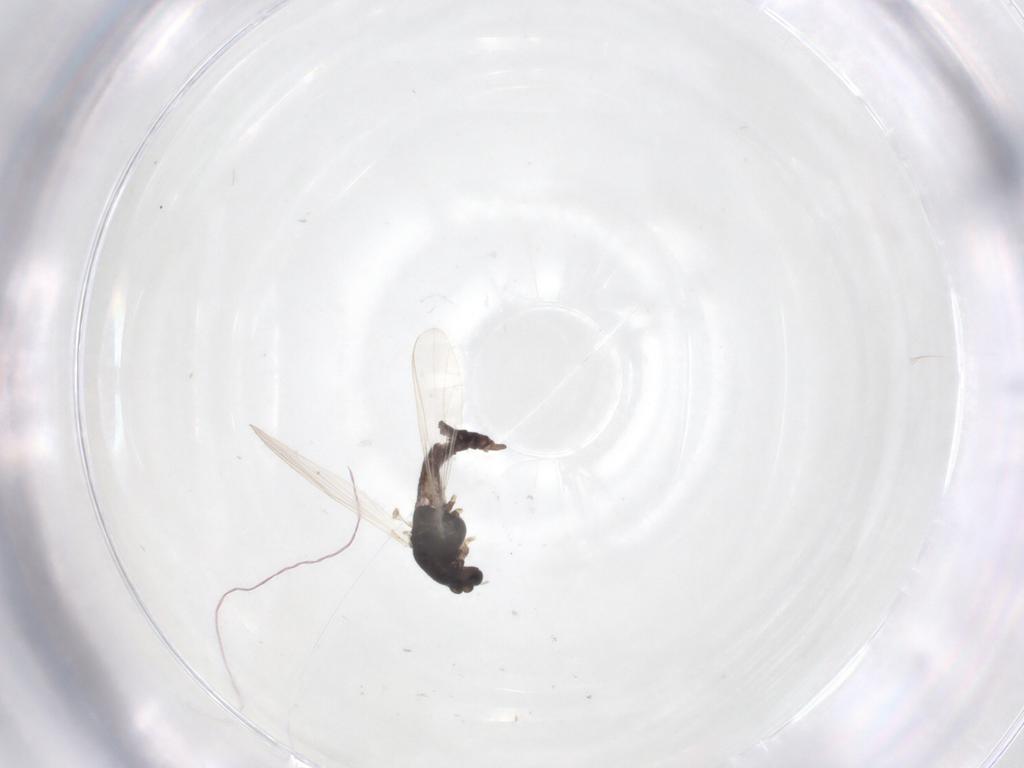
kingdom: Animalia
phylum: Arthropoda
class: Insecta
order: Diptera
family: Chironomidae
